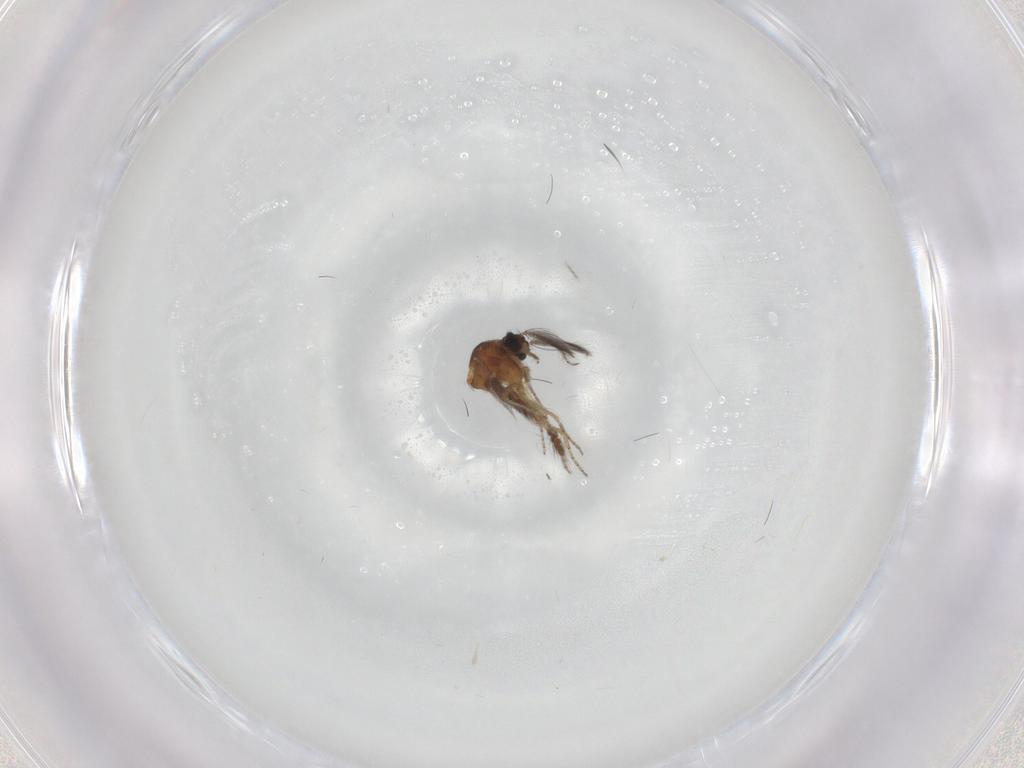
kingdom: Animalia
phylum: Arthropoda
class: Insecta
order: Diptera
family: Ceratopogonidae
